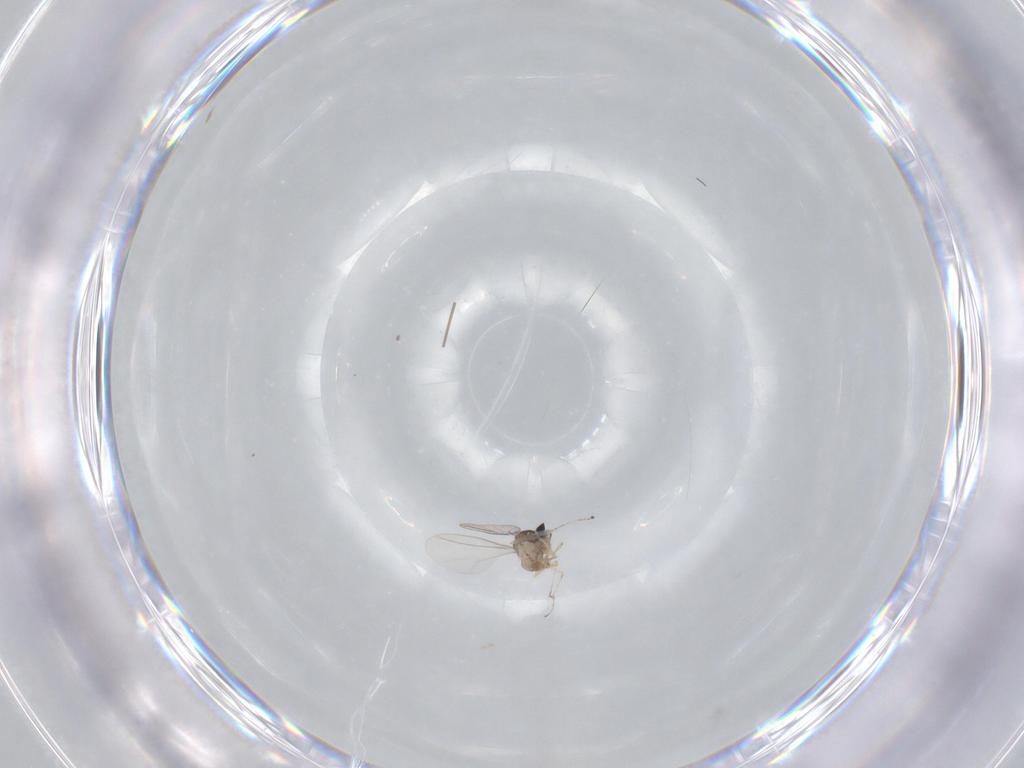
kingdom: Animalia
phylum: Arthropoda
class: Insecta
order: Diptera
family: Cecidomyiidae
